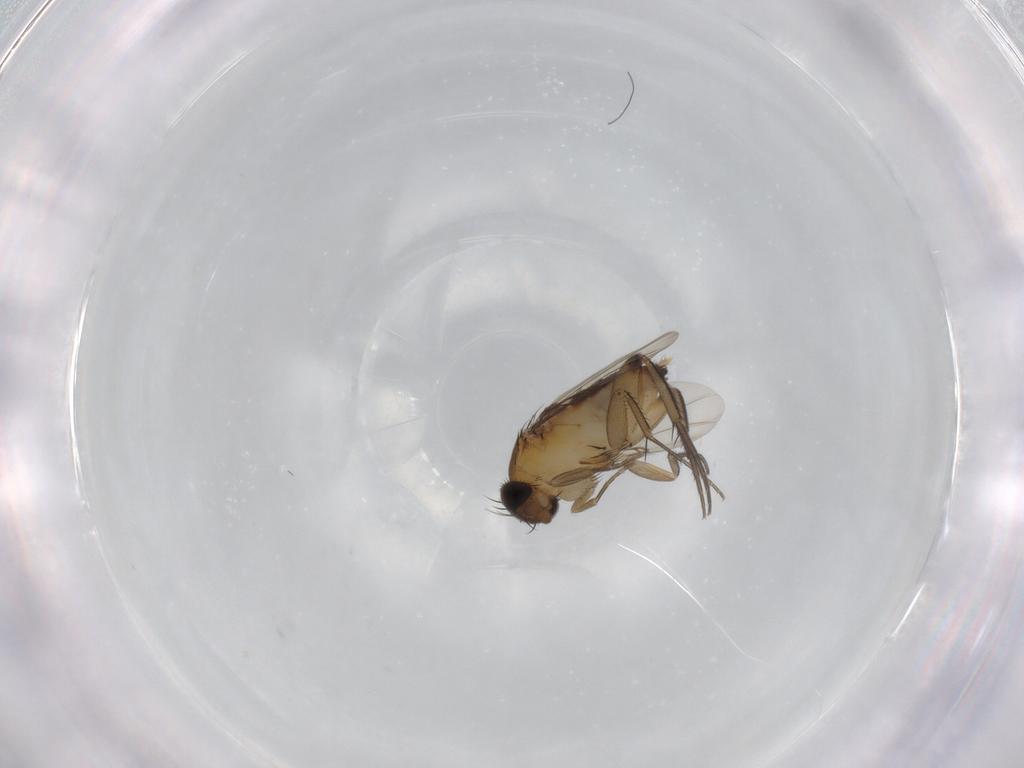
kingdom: Animalia
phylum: Arthropoda
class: Insecta
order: Diptera
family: Phoridae
